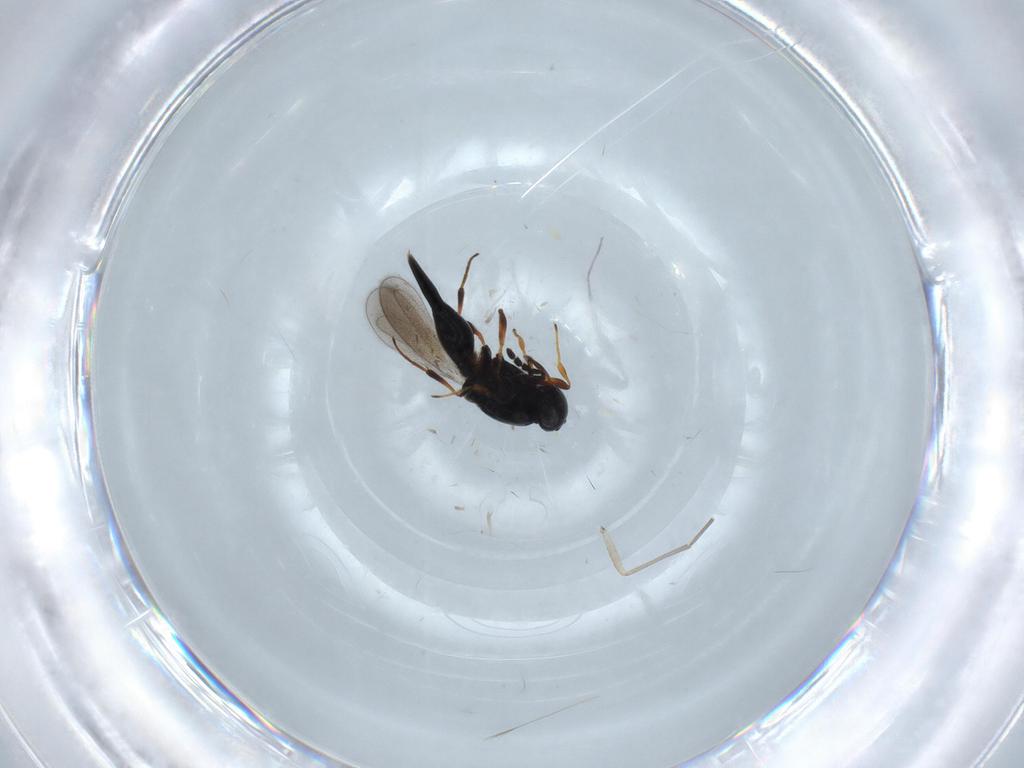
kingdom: Animalia
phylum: Arthropoda
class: Insecta
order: Hymenoptera
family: Platygastridae
